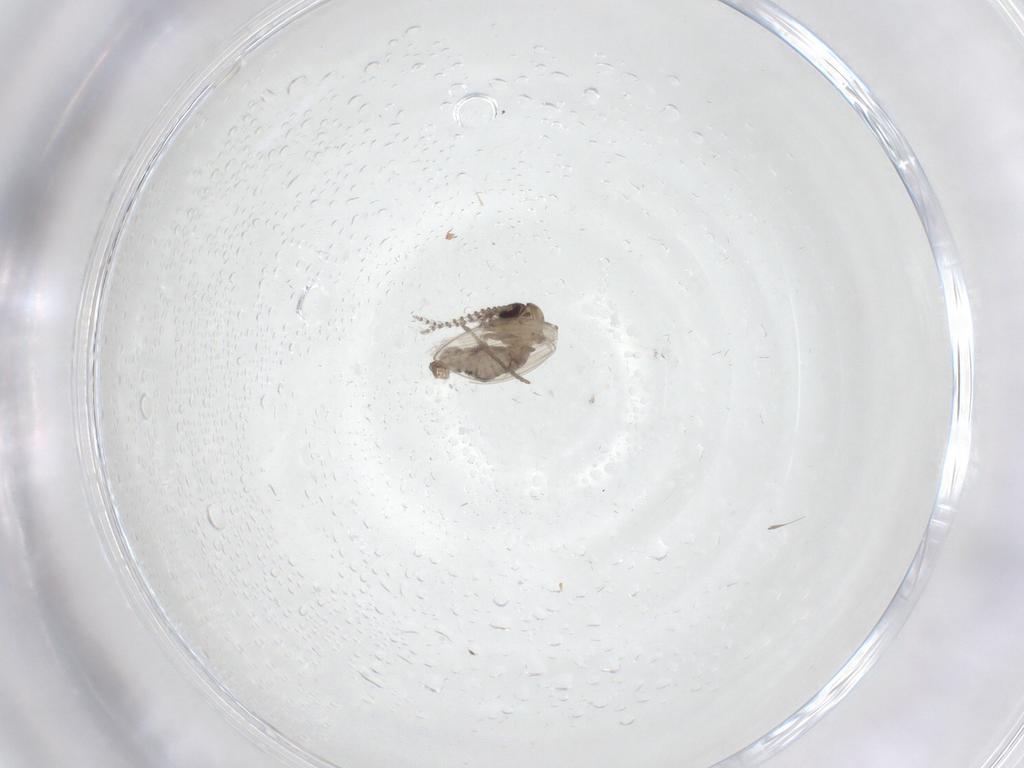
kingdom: Animalia
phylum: Arthropoda
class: Insecta
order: Diptera
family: Psychodidae
